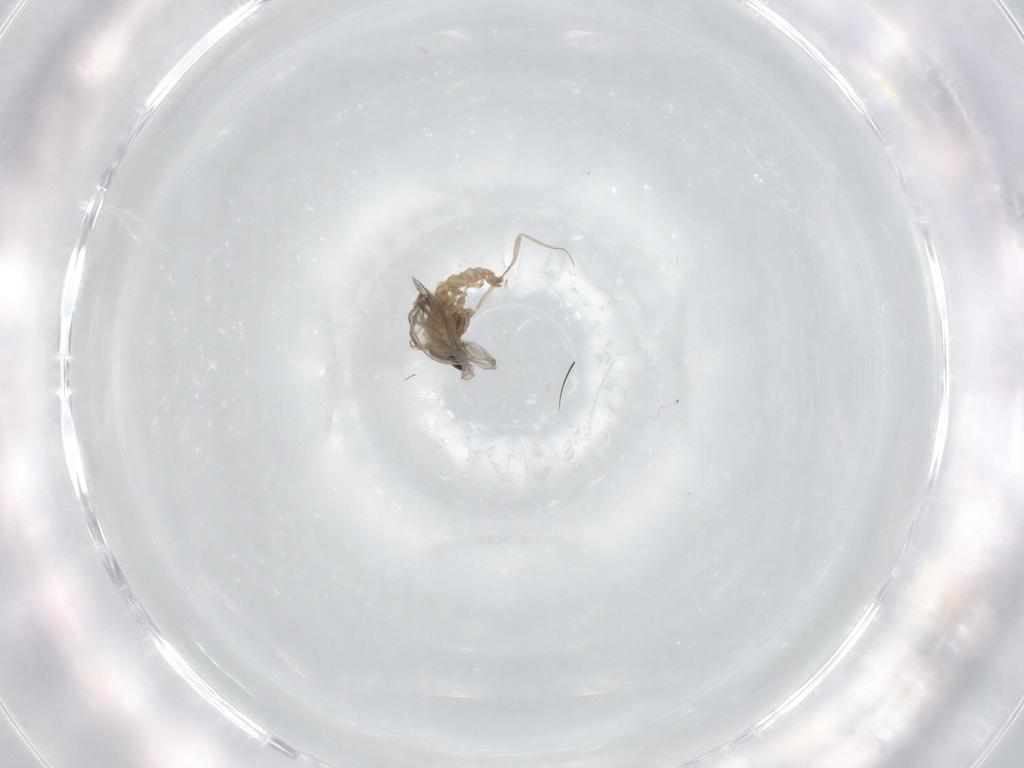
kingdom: Animalia
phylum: Arthropoda
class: Insecta
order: Diptera
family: Cecidomyiidae
